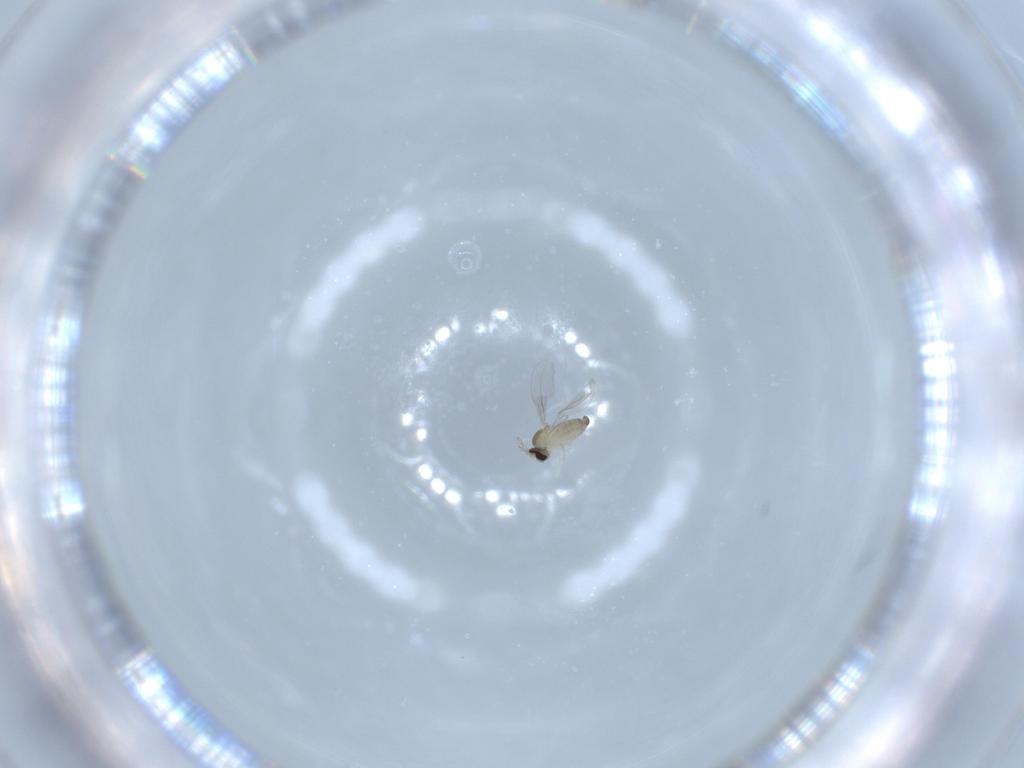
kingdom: Animalia
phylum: Arthropoda
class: Insecta
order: Diptera
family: Cecidomyiidae
